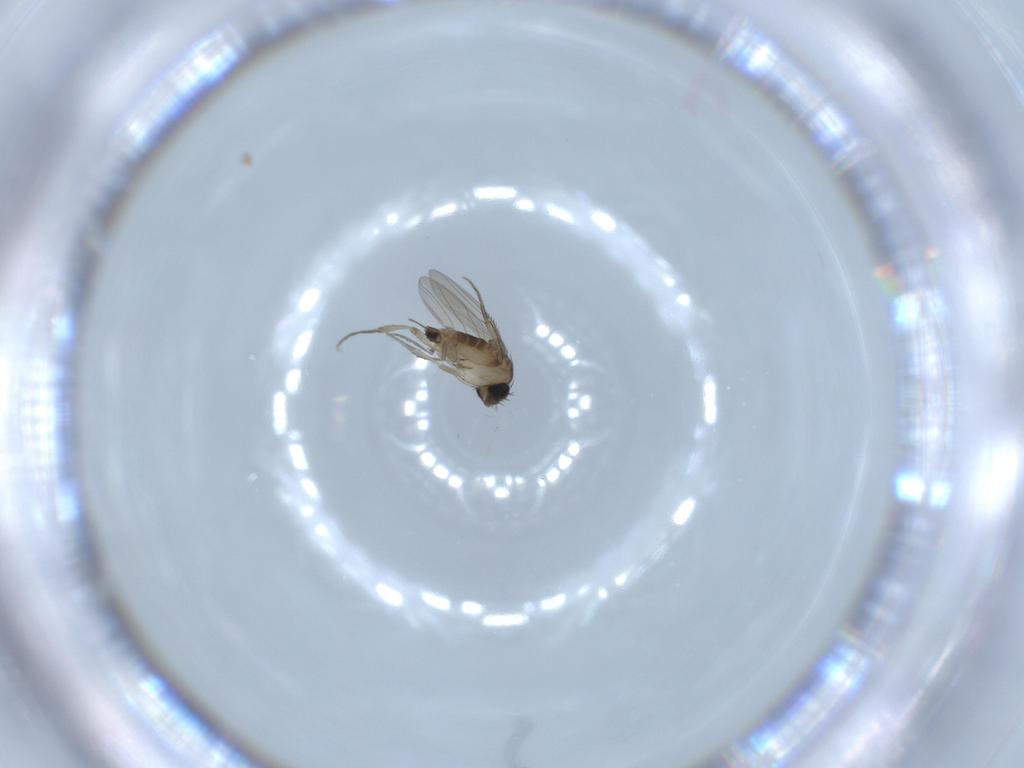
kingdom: Animalia
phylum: Arthropoda
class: Insecta
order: Diptera
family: Phoridae
